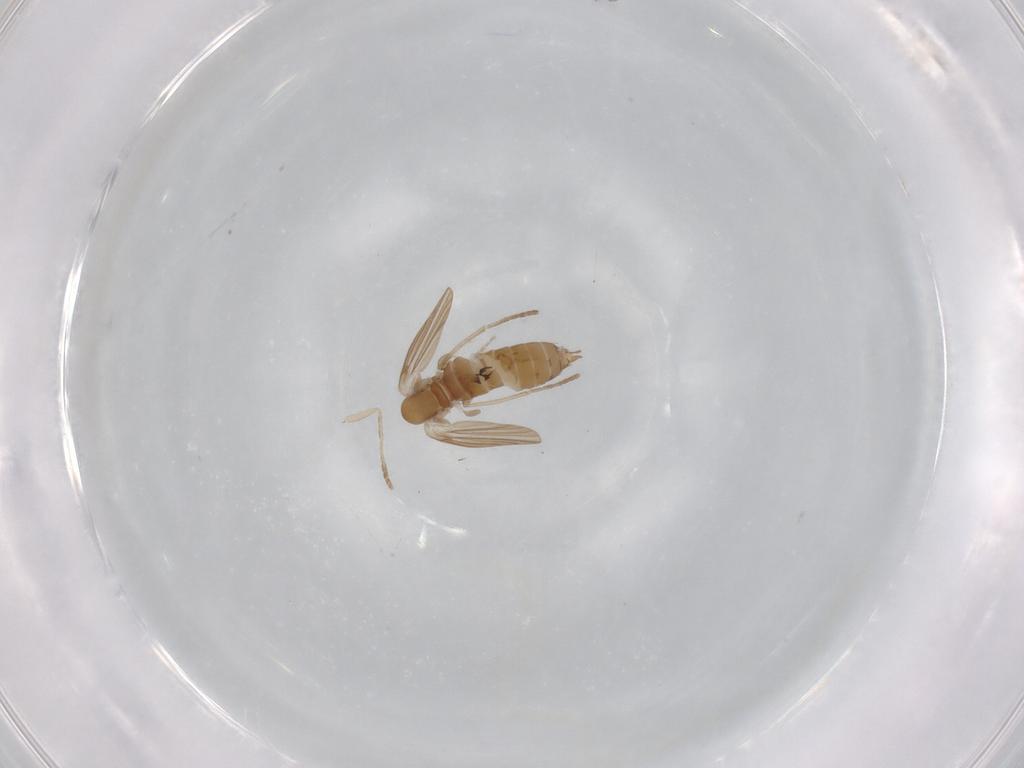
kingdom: Animalia
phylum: Arthropoda
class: Insecta
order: Diptera
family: Tabanidae
